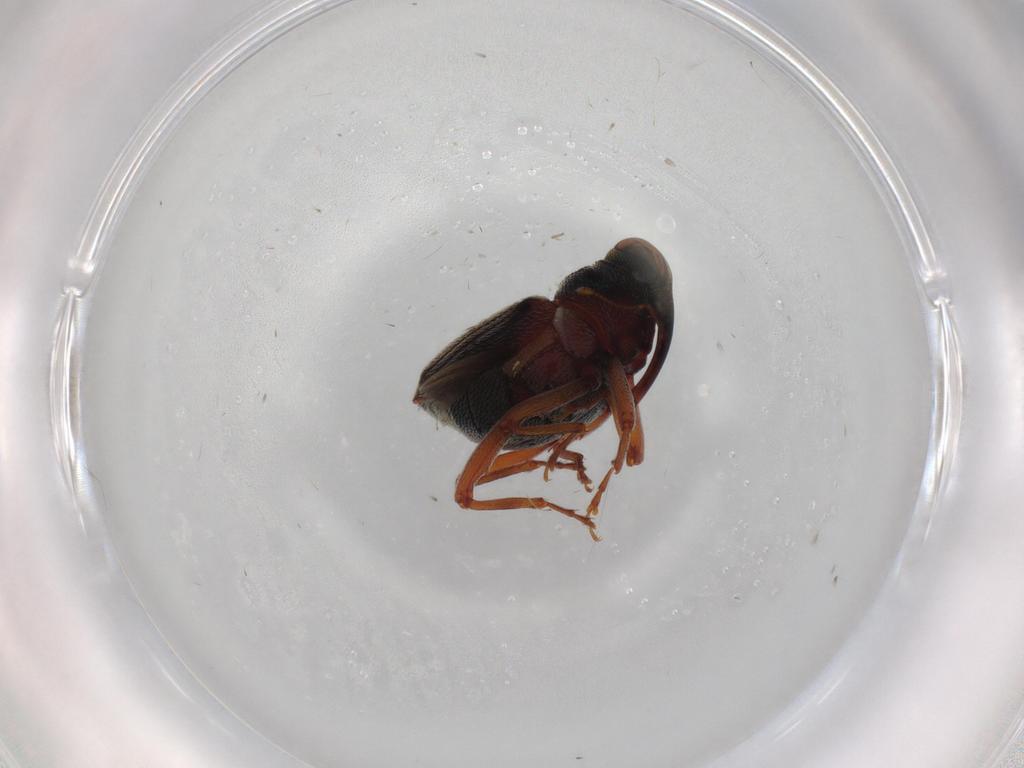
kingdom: Animalia
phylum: Arthropoda
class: Insecta
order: Coleoptera
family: Curculionidae
